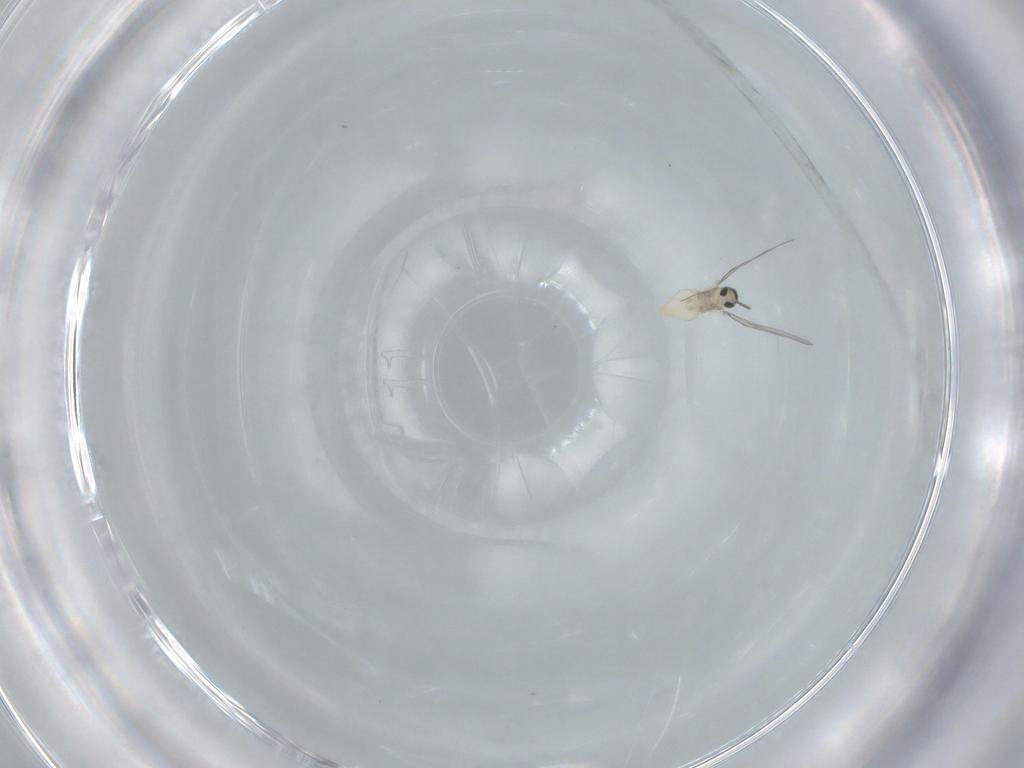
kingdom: Animalia
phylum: Arthropoda
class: Insecta
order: Diptera
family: Cecidomyiidae
